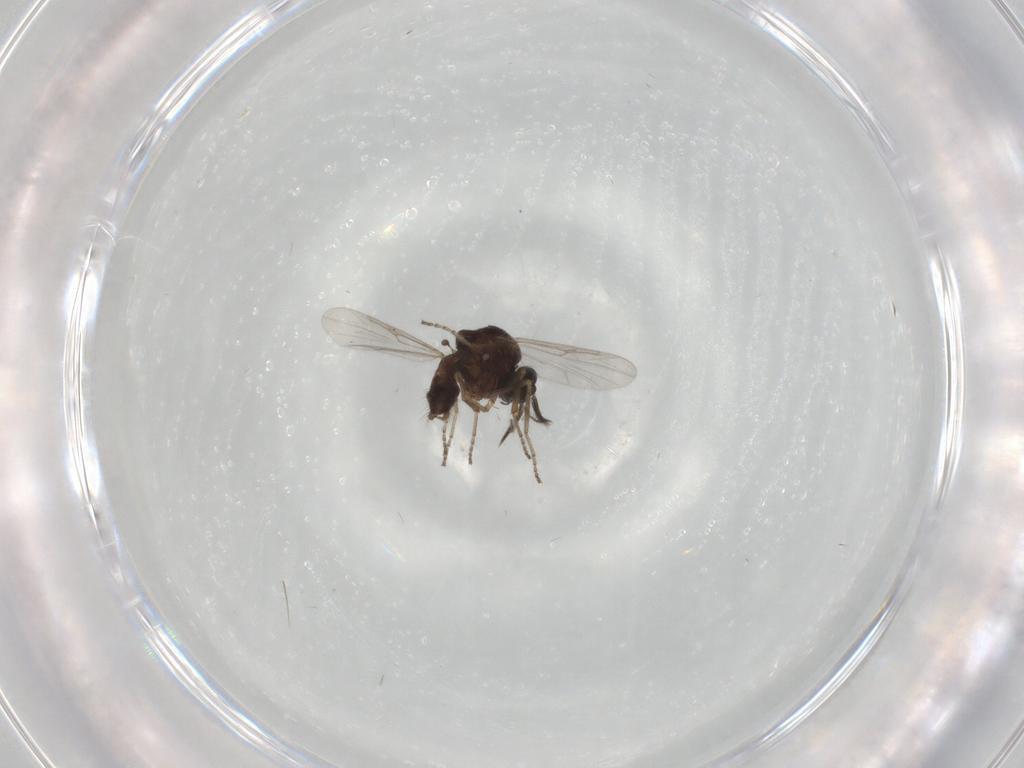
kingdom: Animalia
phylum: Arthropoda
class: Insecta
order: Diptera
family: Ceratopogonidae
